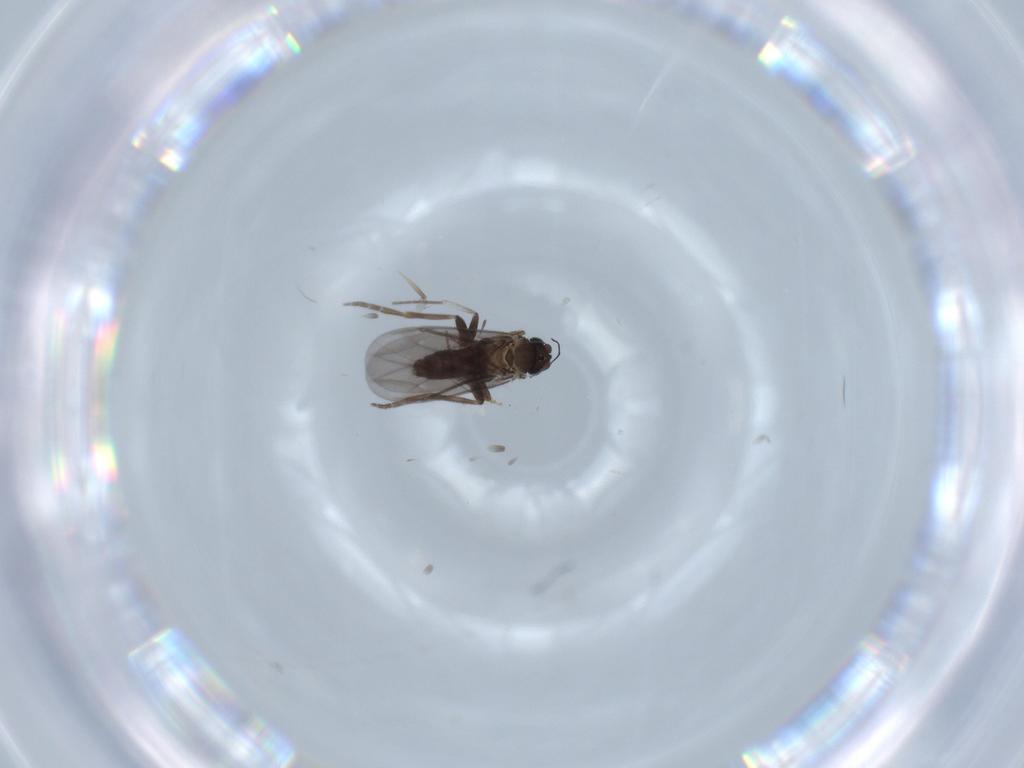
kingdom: Animalia
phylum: Arthropoda
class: Insecta
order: Diptera
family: Phoridae
